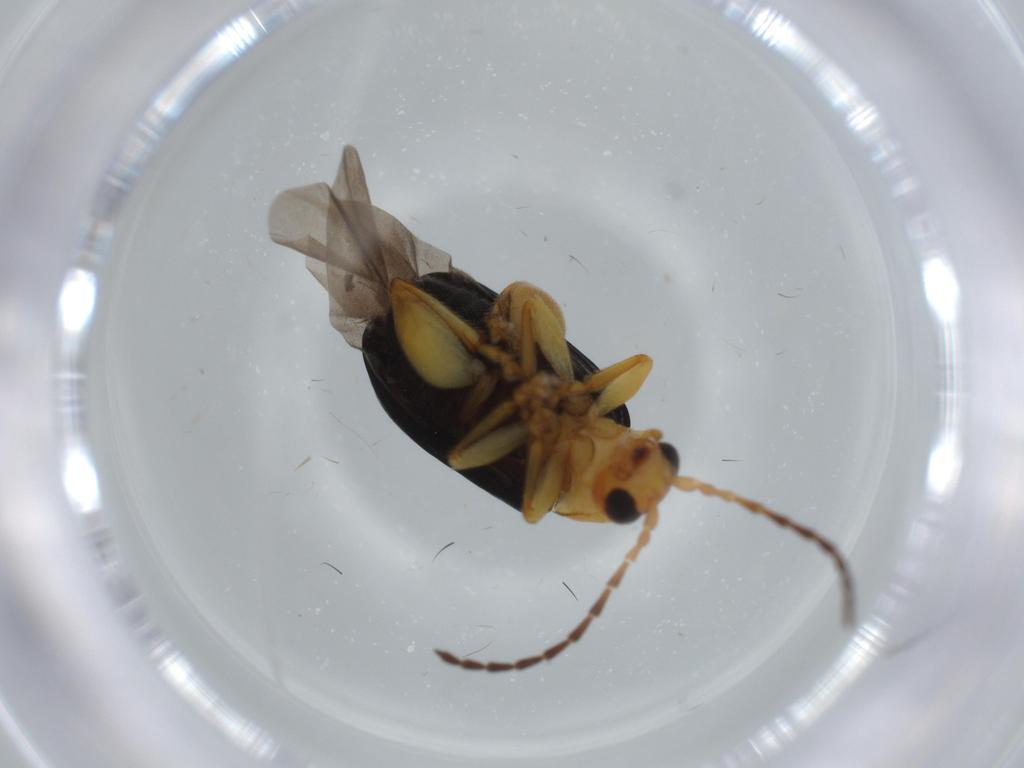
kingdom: Animalia
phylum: Arthropoda
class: Insecta
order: Coleoptera
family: Chrysomelidae
